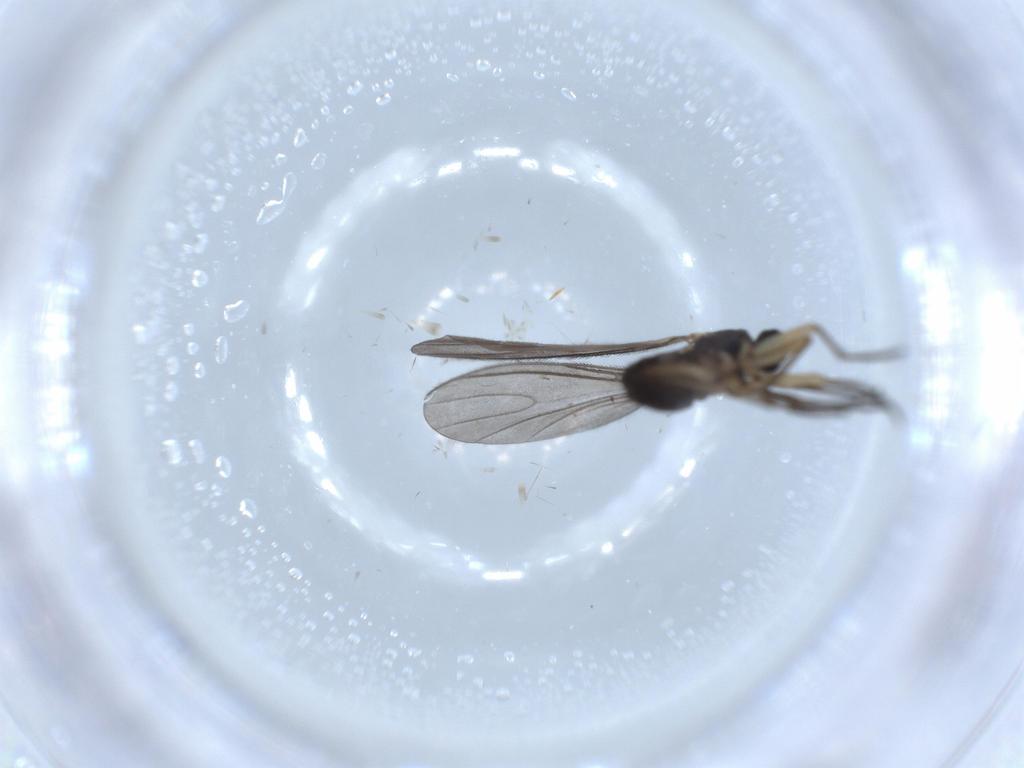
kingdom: Animalia
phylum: Arthropoda
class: Insecta
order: Diptera
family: Sciaridae
